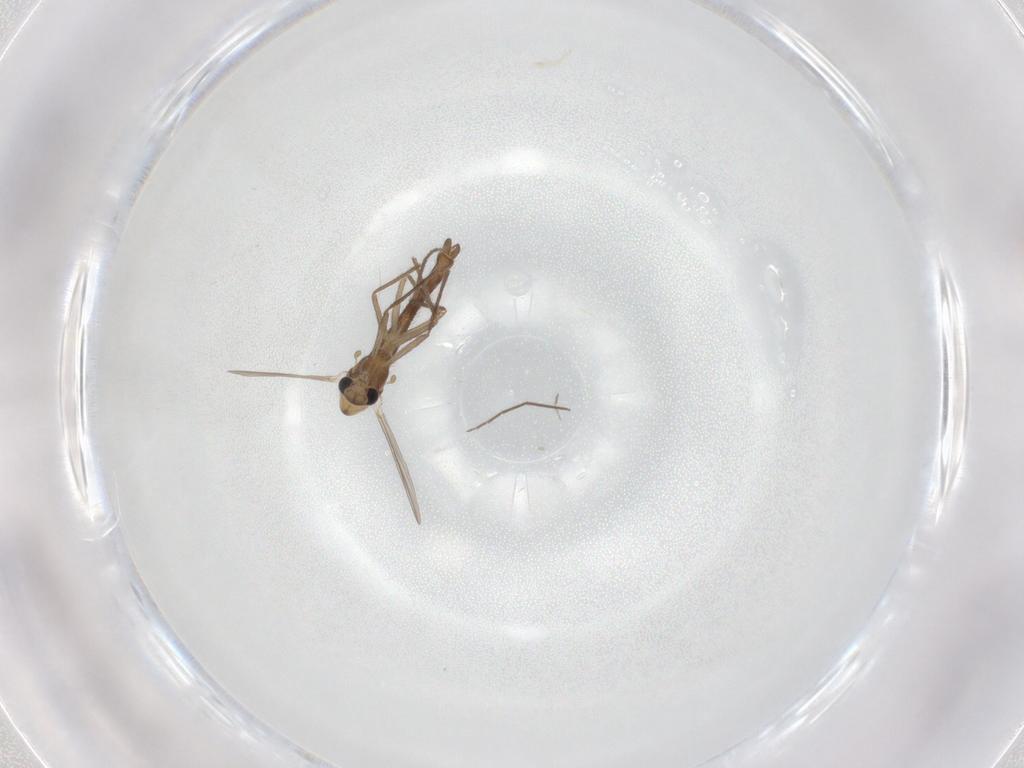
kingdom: Animalia
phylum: Arthropoda
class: Insecta
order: Diptera
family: Chironomidae
